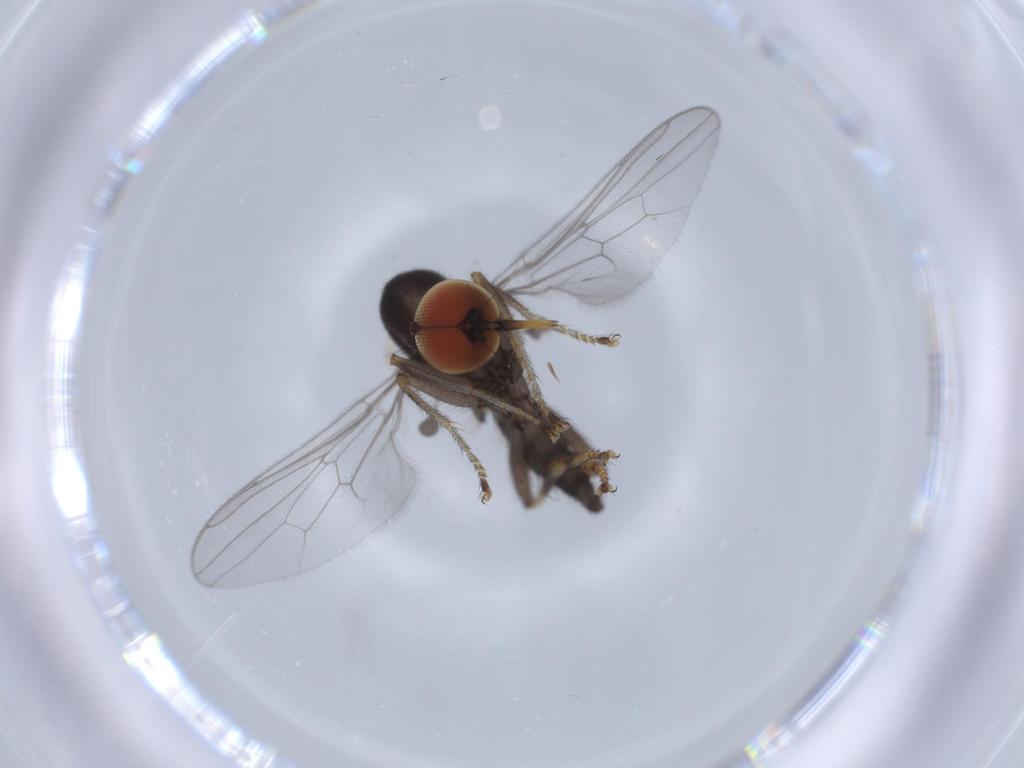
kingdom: Animalia
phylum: Arthropoda
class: Insecta
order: Diptera
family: Hybotidae
